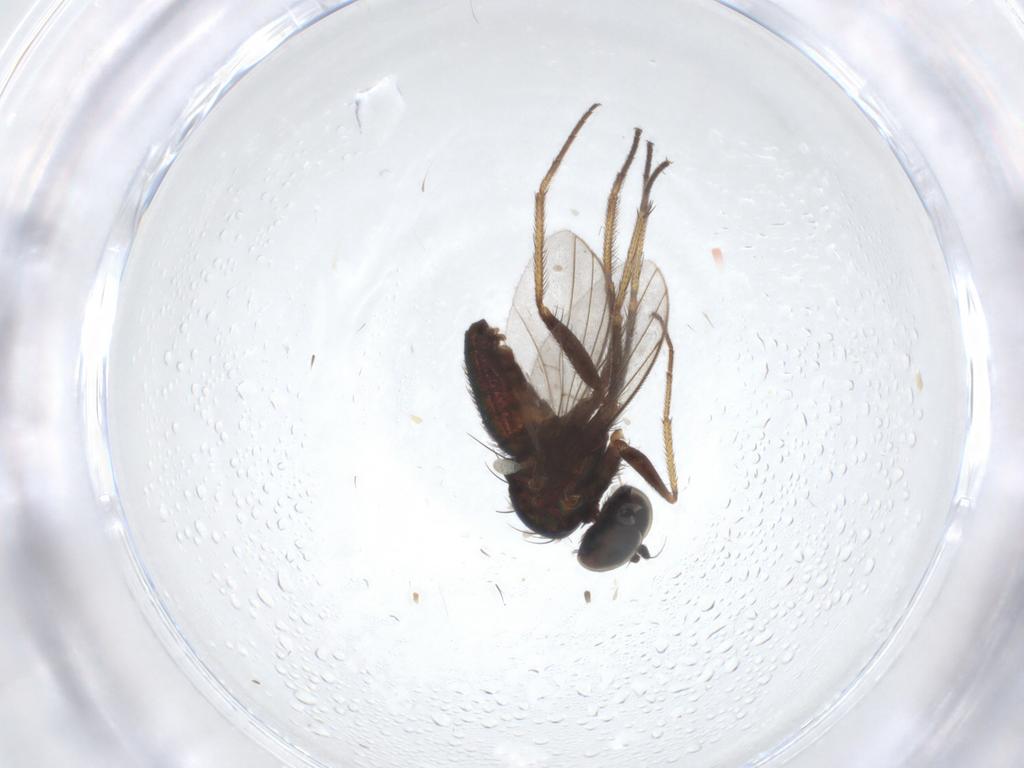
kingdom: Animalia
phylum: Arthropoda
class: Insecta
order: Diptera
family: Dolichopodidae
